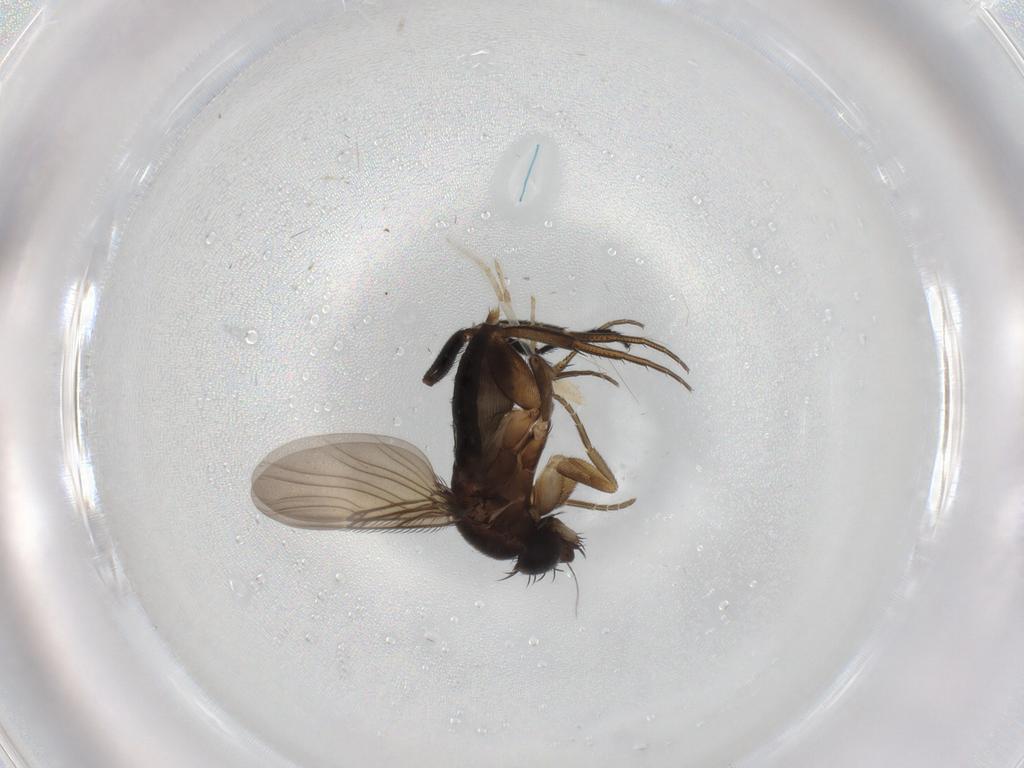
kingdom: Animalia
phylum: Arthropoda
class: Insecta
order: Diptera
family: Phoridae
